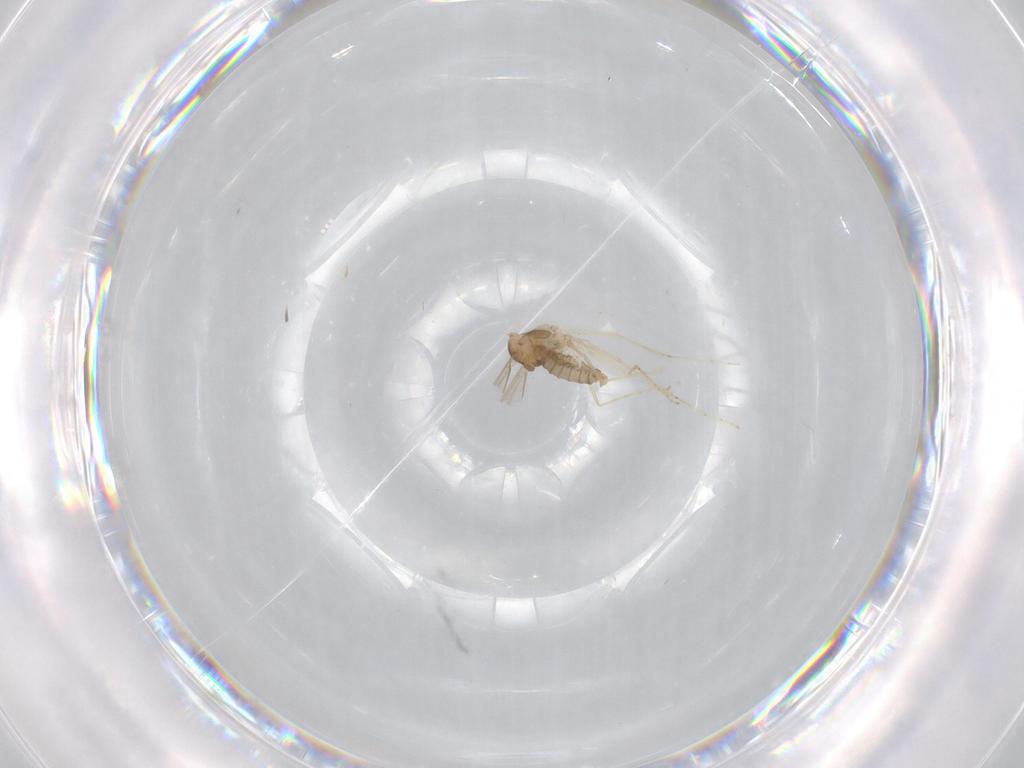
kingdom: Animalia
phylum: Arthropoda
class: Insecta
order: Diptera
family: Cecidomyiidae
